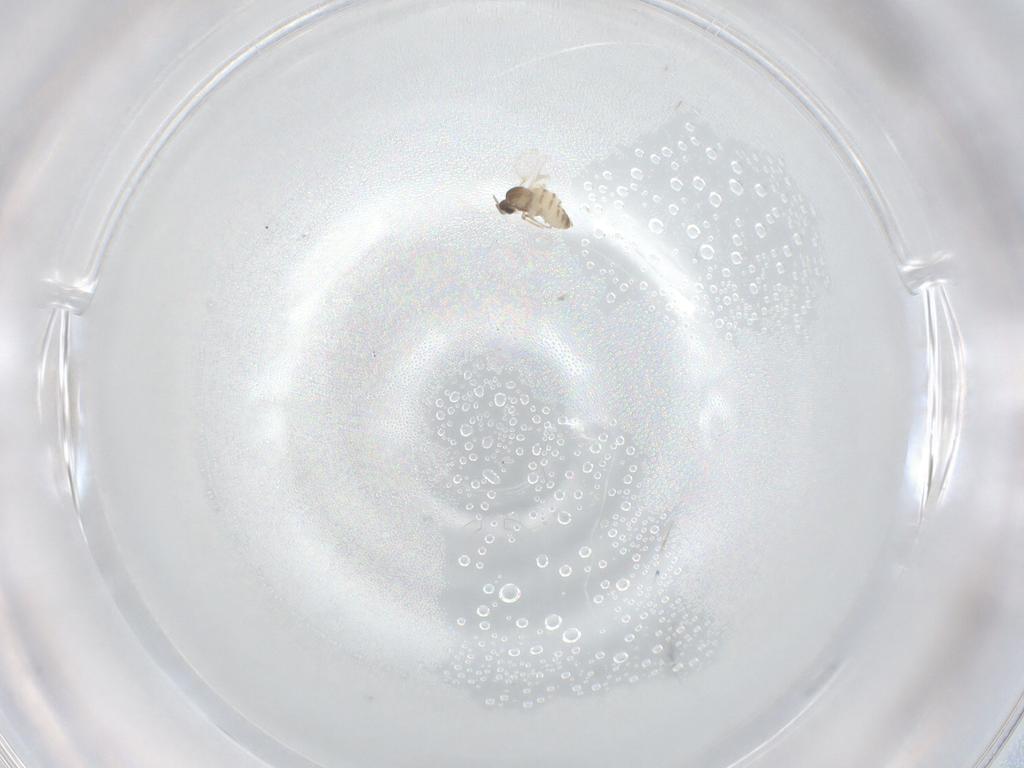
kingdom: Animalia
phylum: Arthropoda
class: Insecta
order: Diptera
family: Cecidomyiidae
